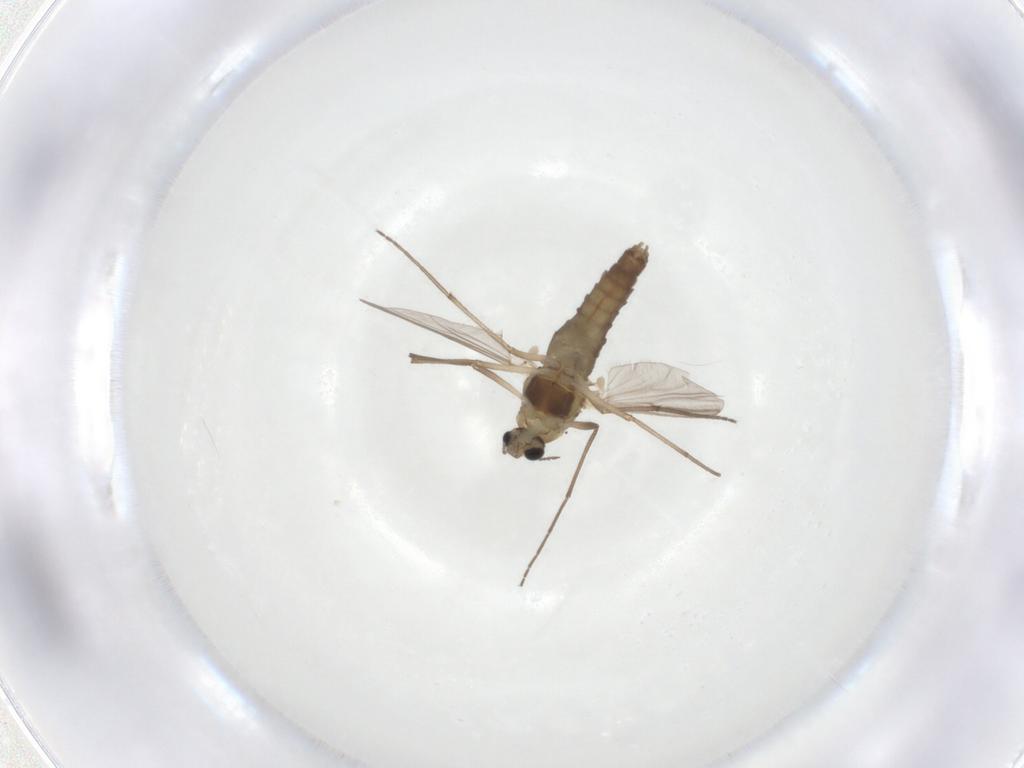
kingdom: Animalia
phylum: Arthropoda
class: Insecta
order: Diptera
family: Chironomidae
